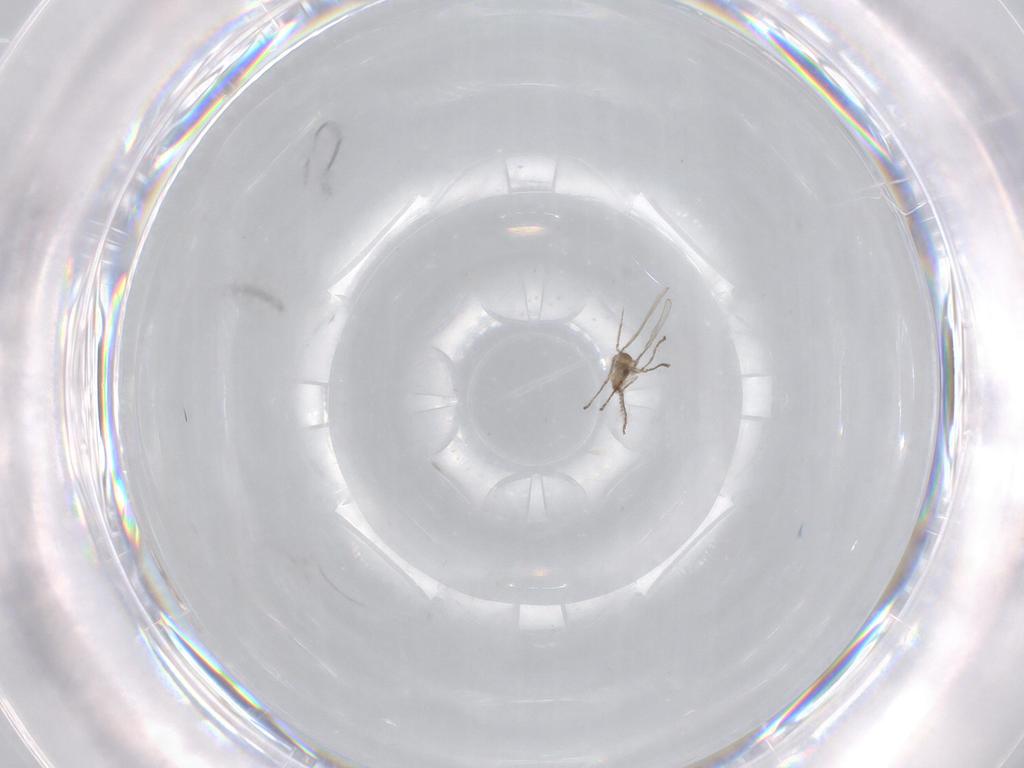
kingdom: Animalia
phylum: Arthropoda
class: Insecta
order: Diptera
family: Cecidomyiidae
